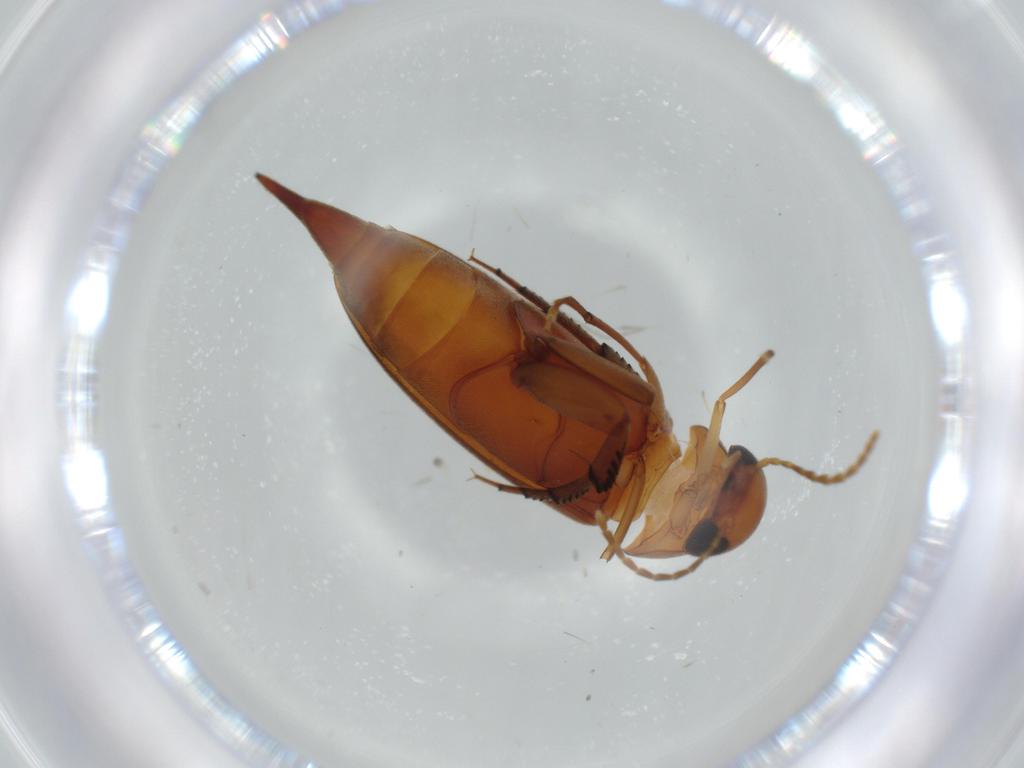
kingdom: Animalia
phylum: Arthropoda
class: Insecta
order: Coleoptera
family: Mordellidae
